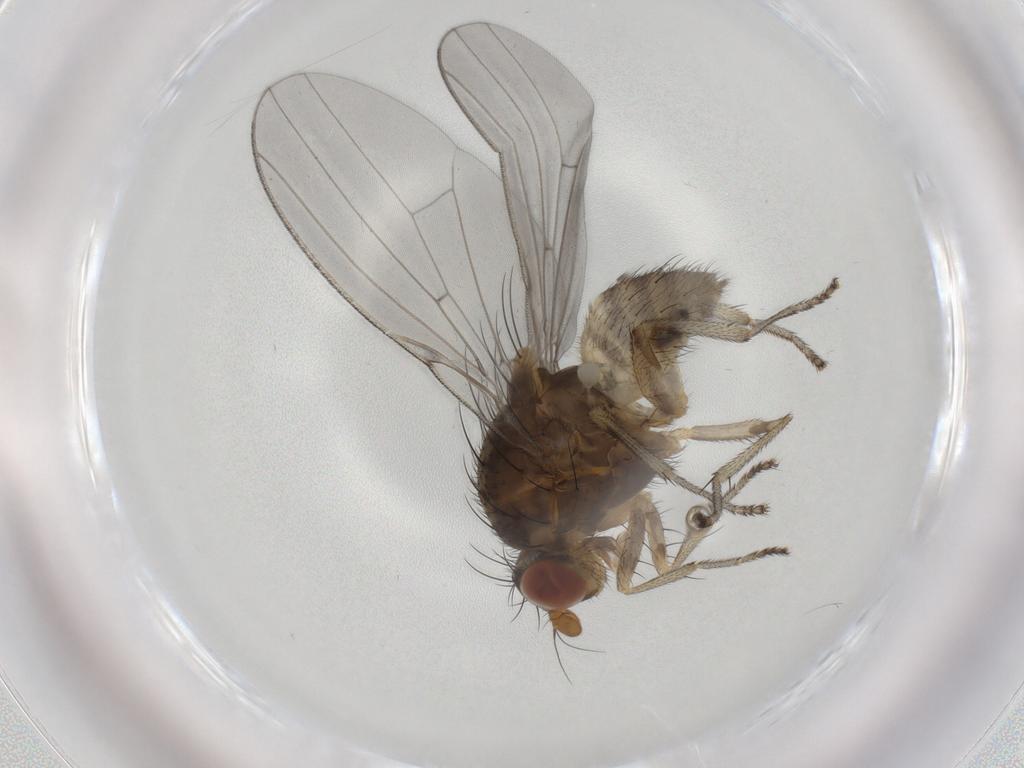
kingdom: Animalia
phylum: Arthropoda
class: Insecta
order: Diptera
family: Lauxaniidae
